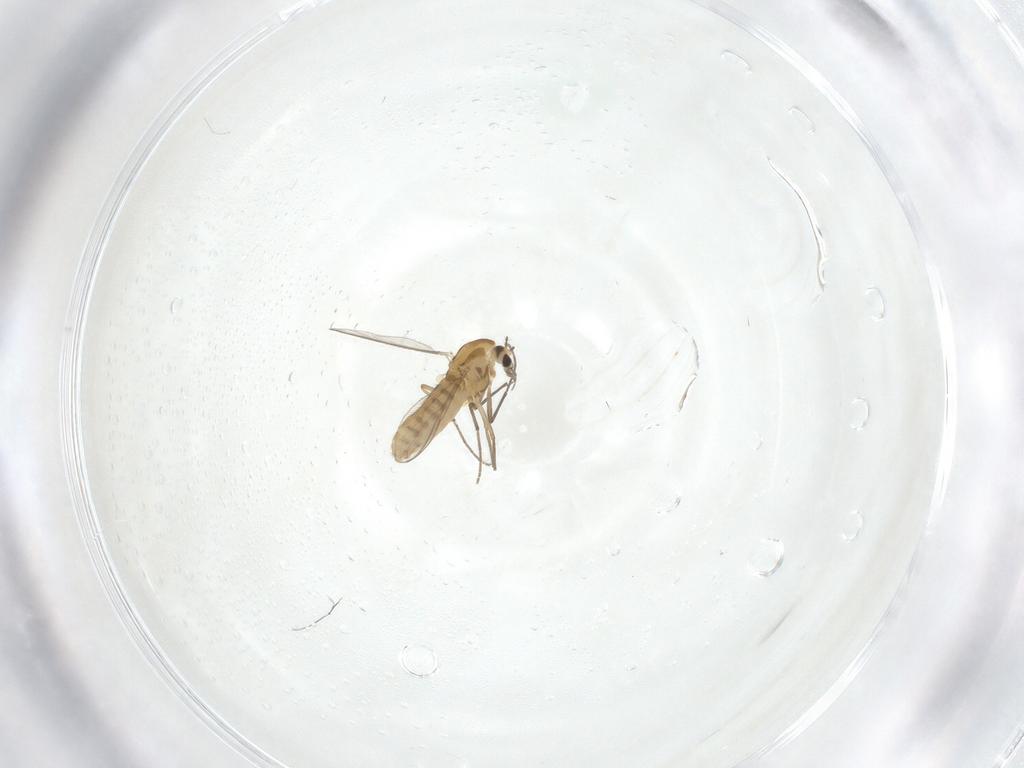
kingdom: Animalia
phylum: Arthropoda
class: Insecta
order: Diptera
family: Chironomidae
